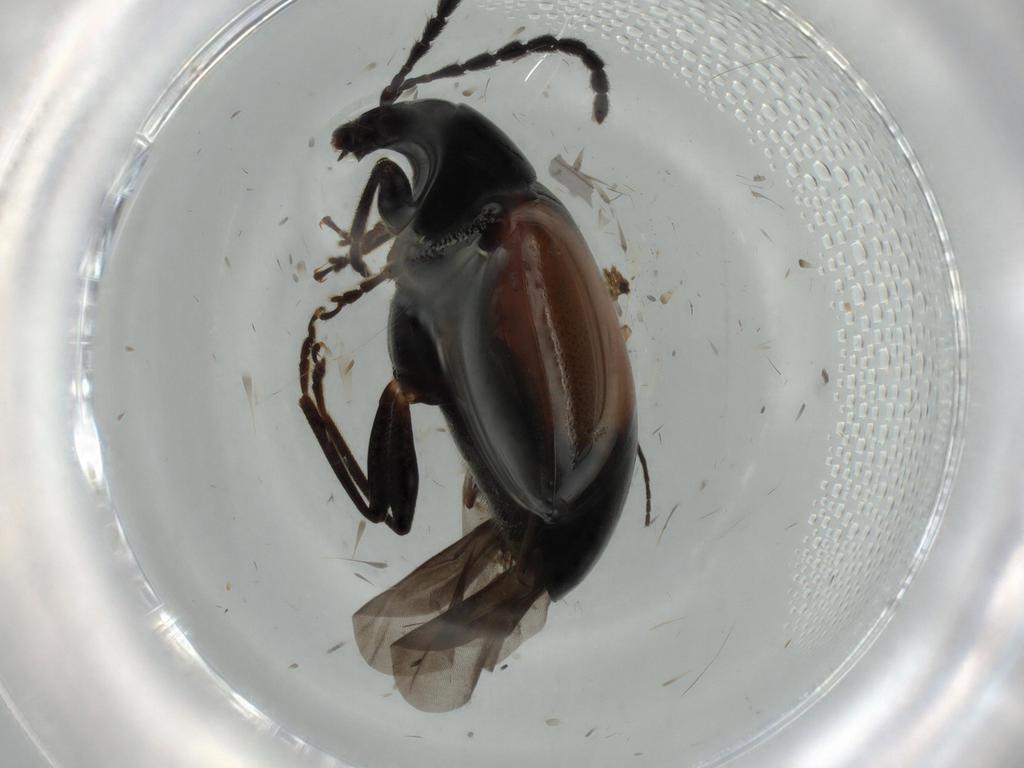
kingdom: Animalia
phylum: Arthropoda
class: Insecta
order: Coleoptera
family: Chrysomelidae
